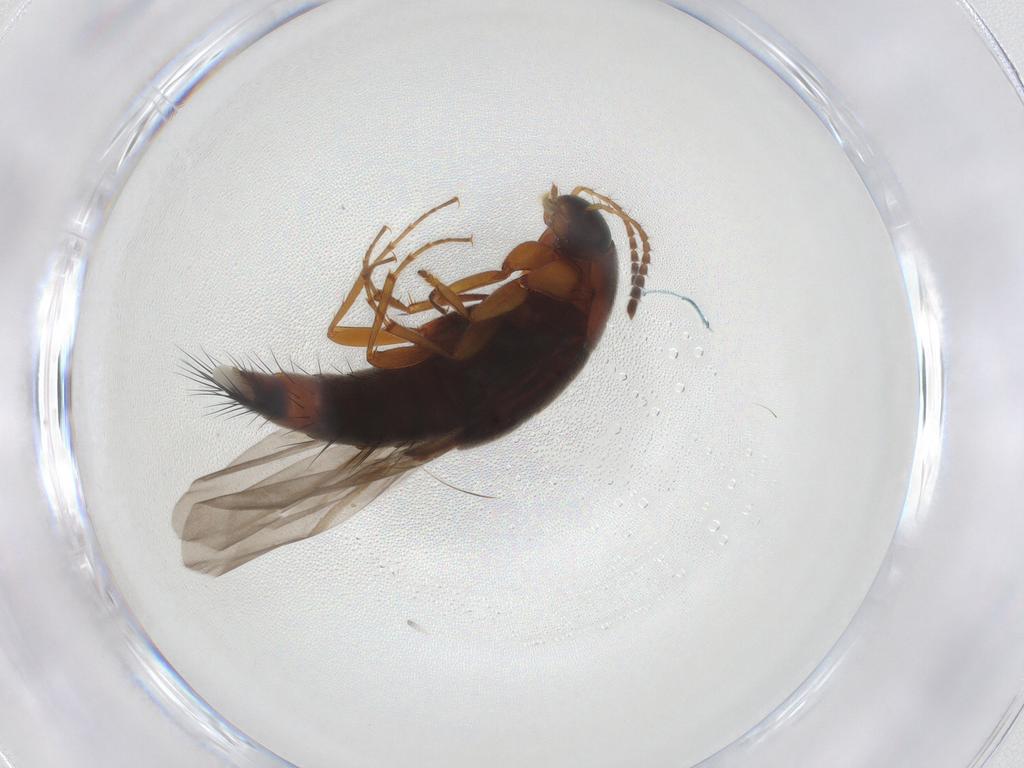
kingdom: Animalia
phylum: Arthropoda
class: Insecta
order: Coleoptera
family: Staphylinidae
